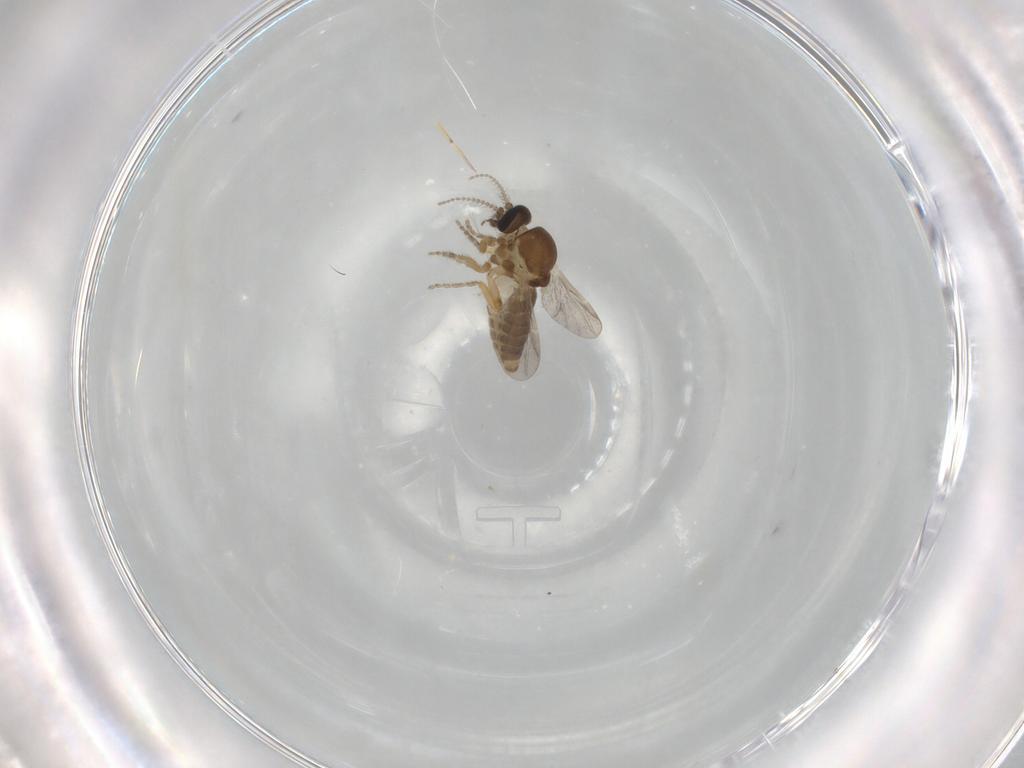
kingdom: Animalia
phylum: Arthropoda
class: Insecta
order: Diptera
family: Ceratopogonidae
